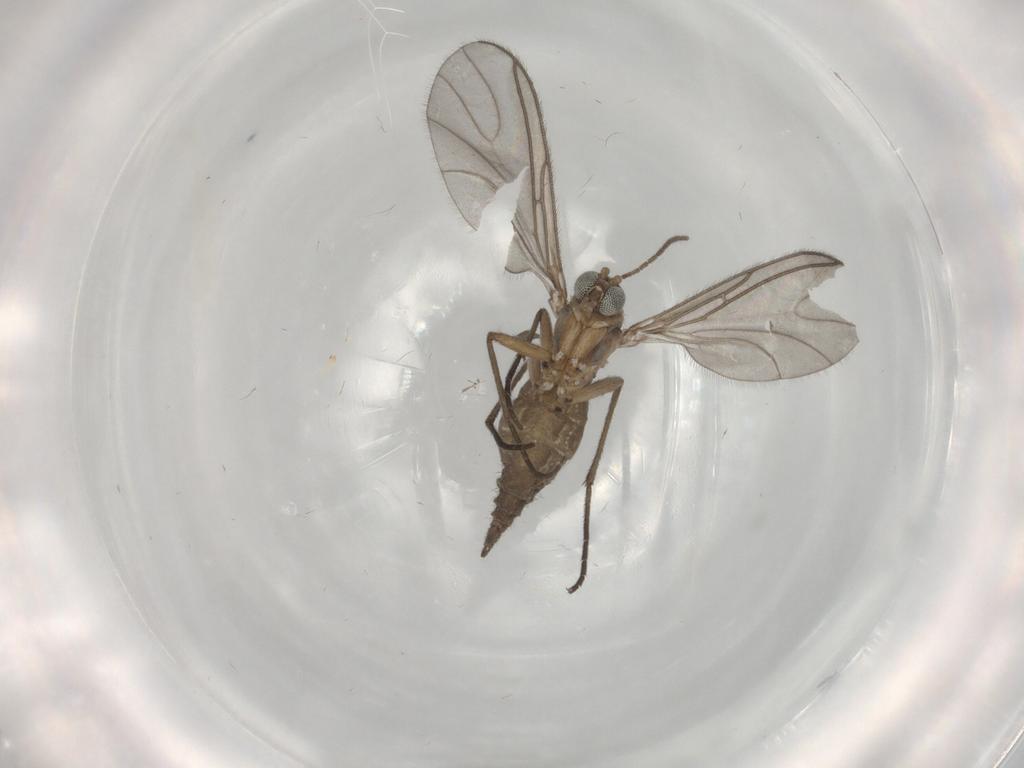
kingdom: Animalia
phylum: Arthropoda
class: Insecta
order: Diptera
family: Sciaridae
